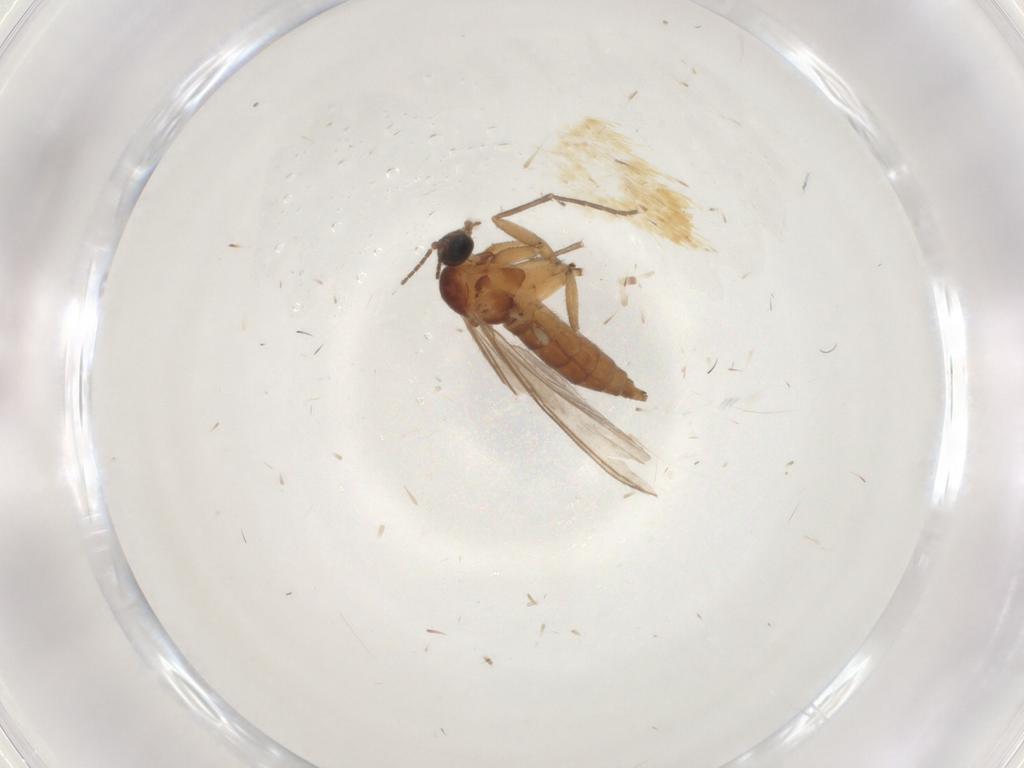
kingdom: Animalia
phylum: Arthropoda
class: Insecta
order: Diptera
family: Sciaridae
